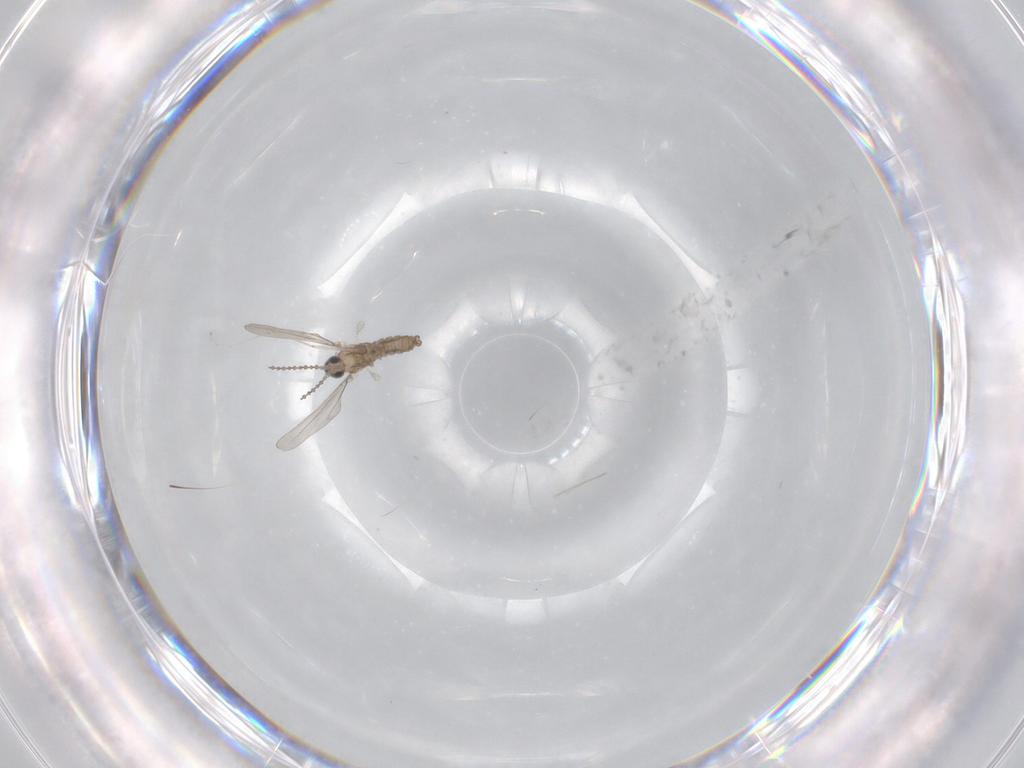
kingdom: Animalia
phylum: Arthropoda
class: Insecta
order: Diptera
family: Cecidomyiidae
